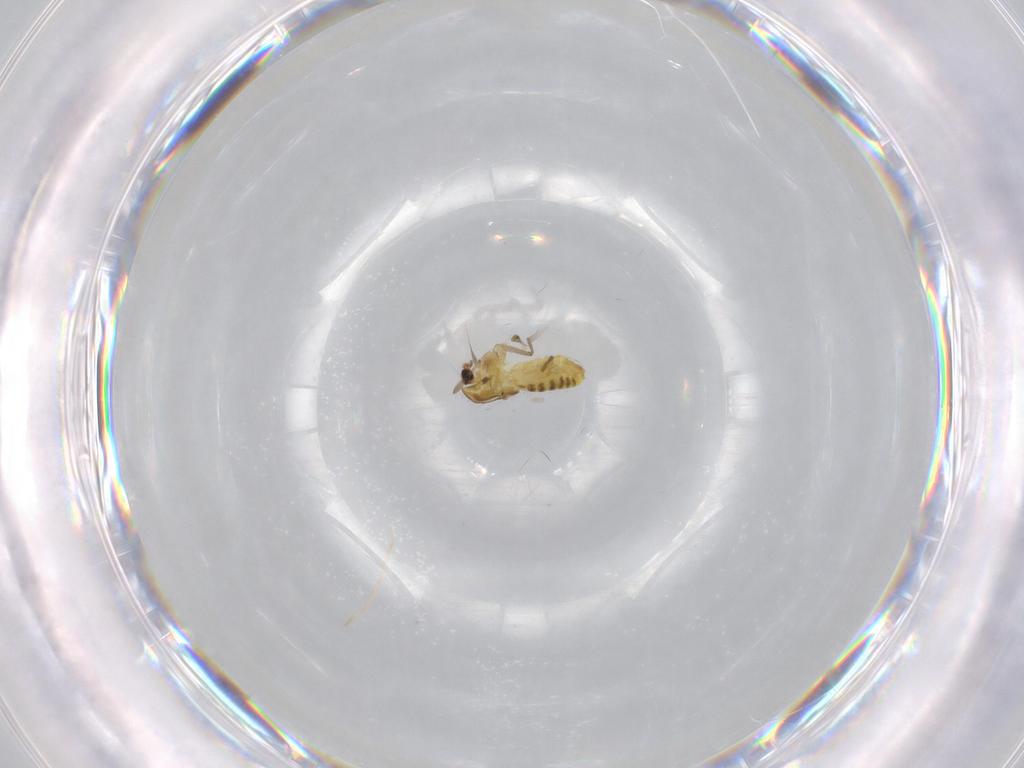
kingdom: Animalia
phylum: Arthropoda
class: Insecta
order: Diptera
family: Chironomidae
